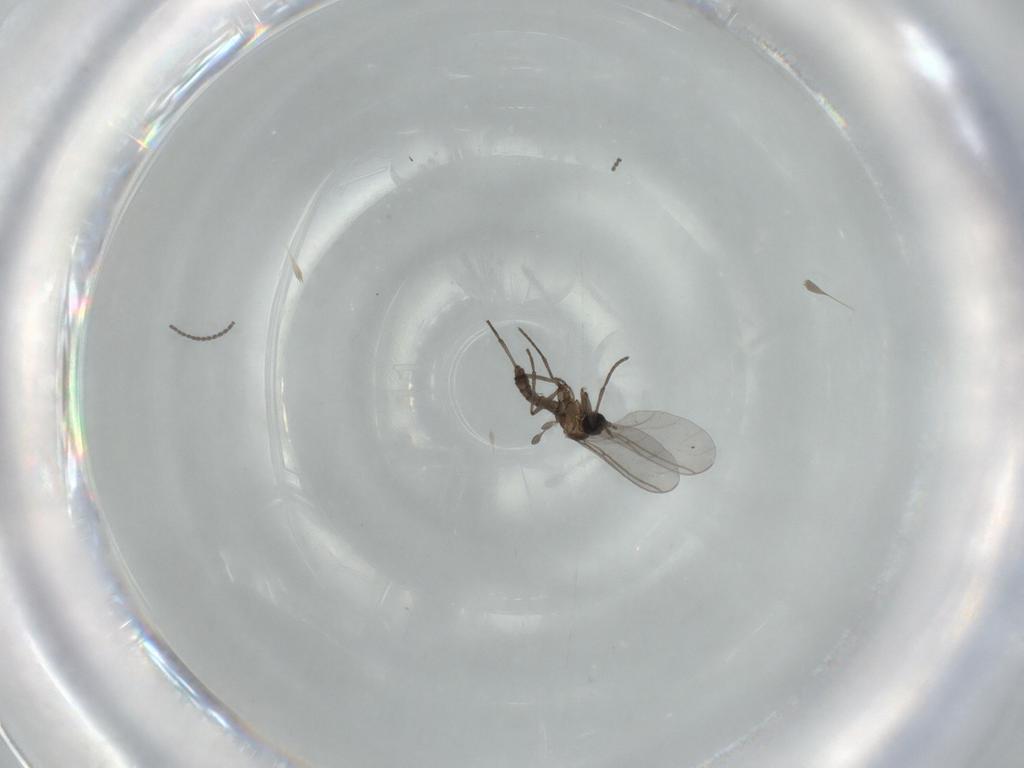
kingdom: Animalia
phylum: Arthropoda
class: Insecta
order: Diptera
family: Sciaridae
